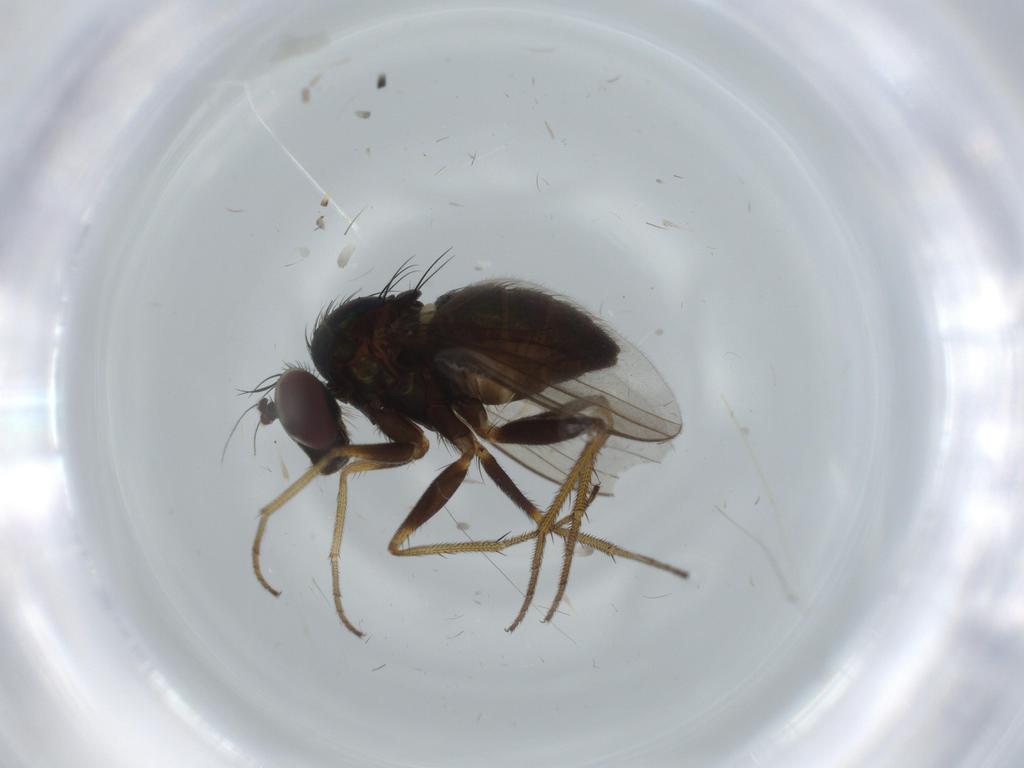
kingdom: Animalia
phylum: Arthropoda
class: Insecta
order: Diptera
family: Dolichopodidae
